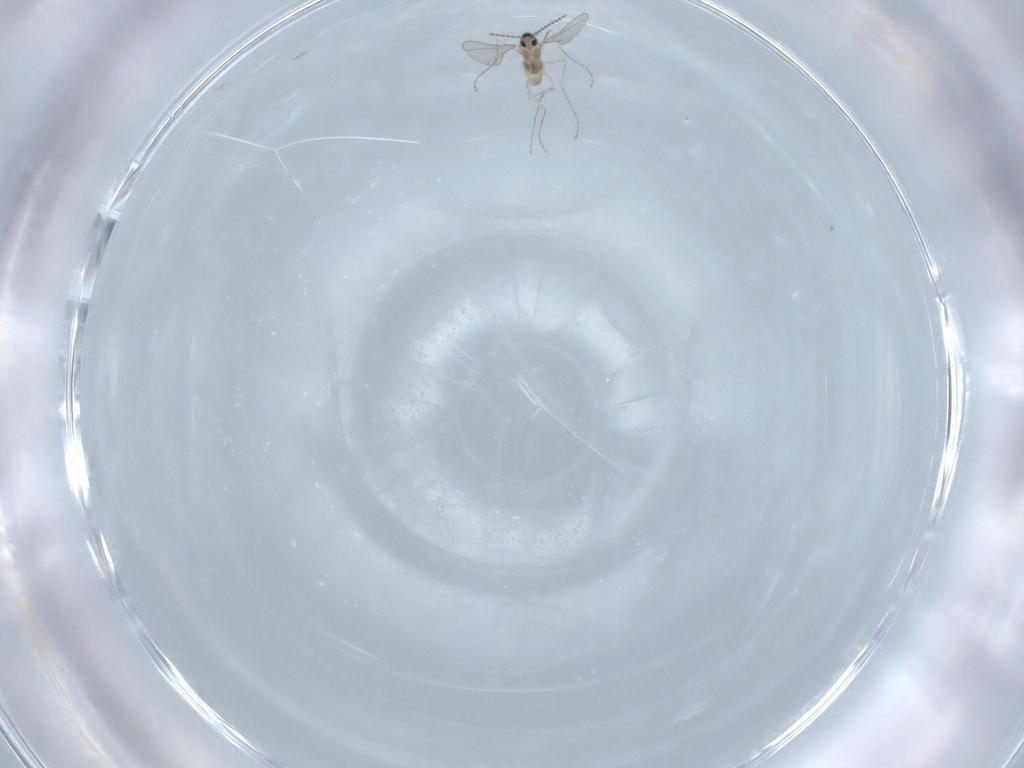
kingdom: Animalia
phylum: Arthropoda
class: Insecta
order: Diptera
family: Cecidomyiidae
